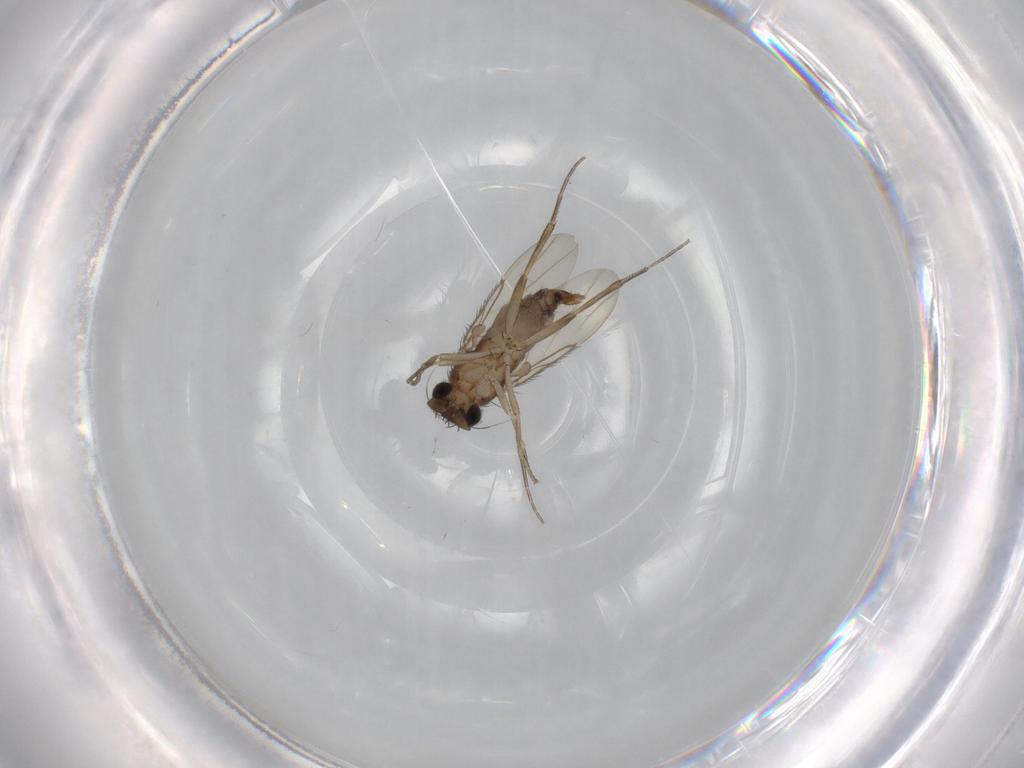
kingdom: Animalia
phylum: Arthropoda
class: Insecta
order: Diptera
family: Phoridae
